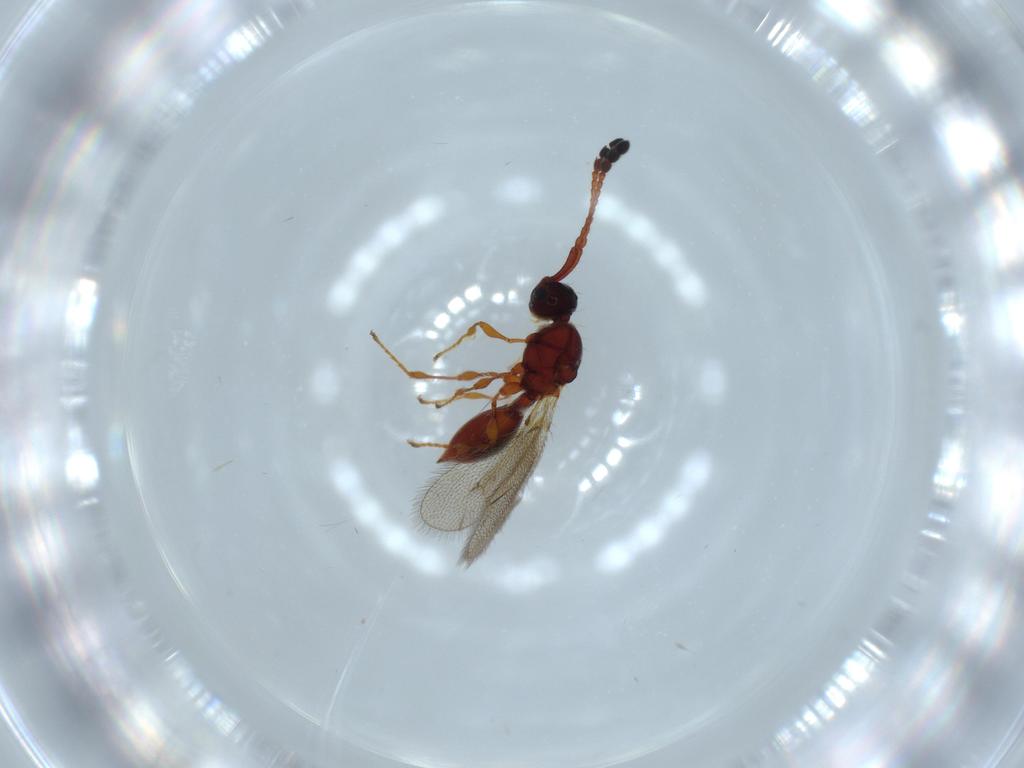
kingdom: Animalia
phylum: Arthropoda
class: Insecta
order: Hymenoptera
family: Diapriidae
